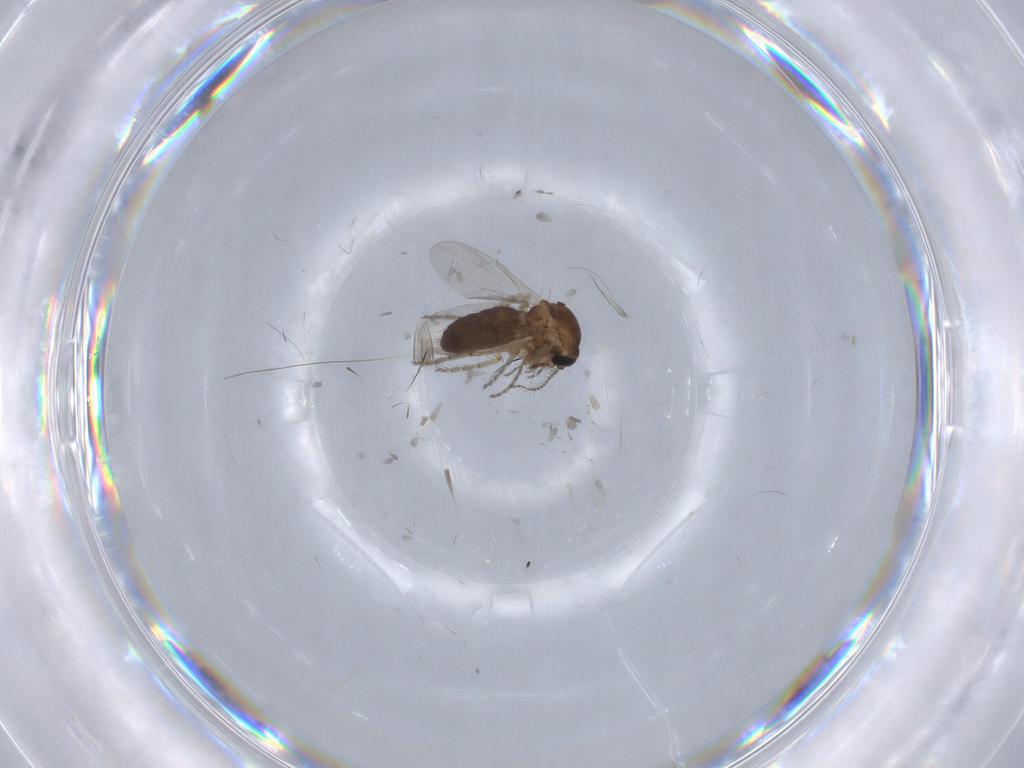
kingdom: Animalia
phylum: Arthropoda
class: Insecta
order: Diptera
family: Ceratopogonidae
